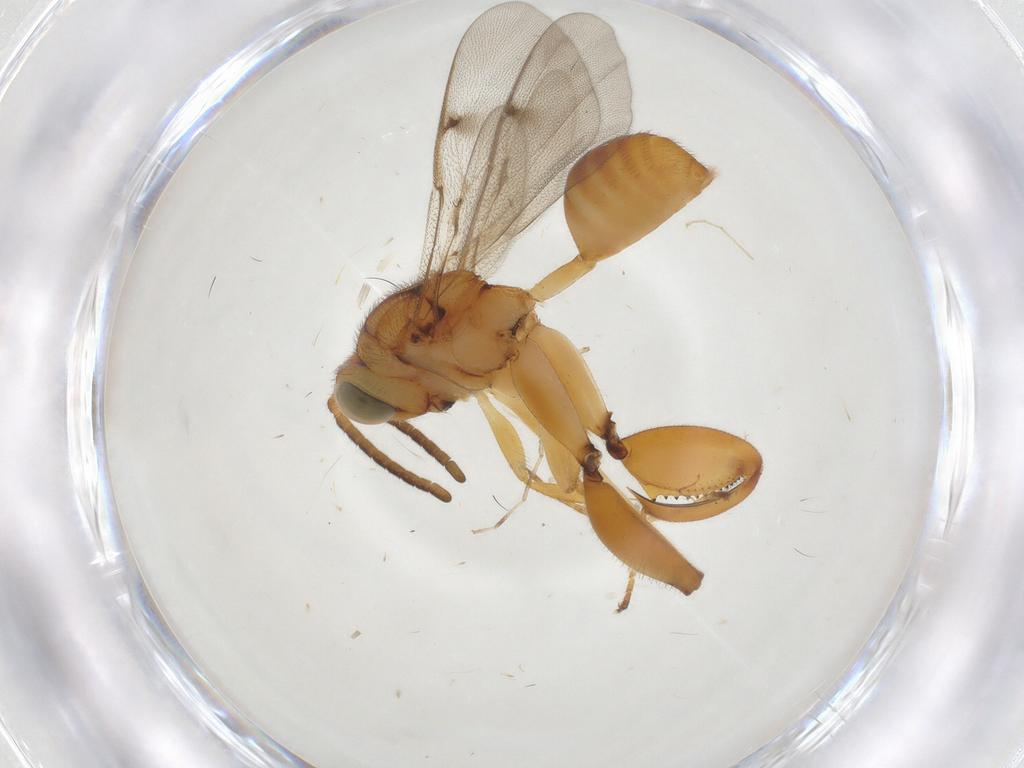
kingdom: Animalia
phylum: Arthropoda
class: Insecta
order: Hymenoptera
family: Chalcididae
